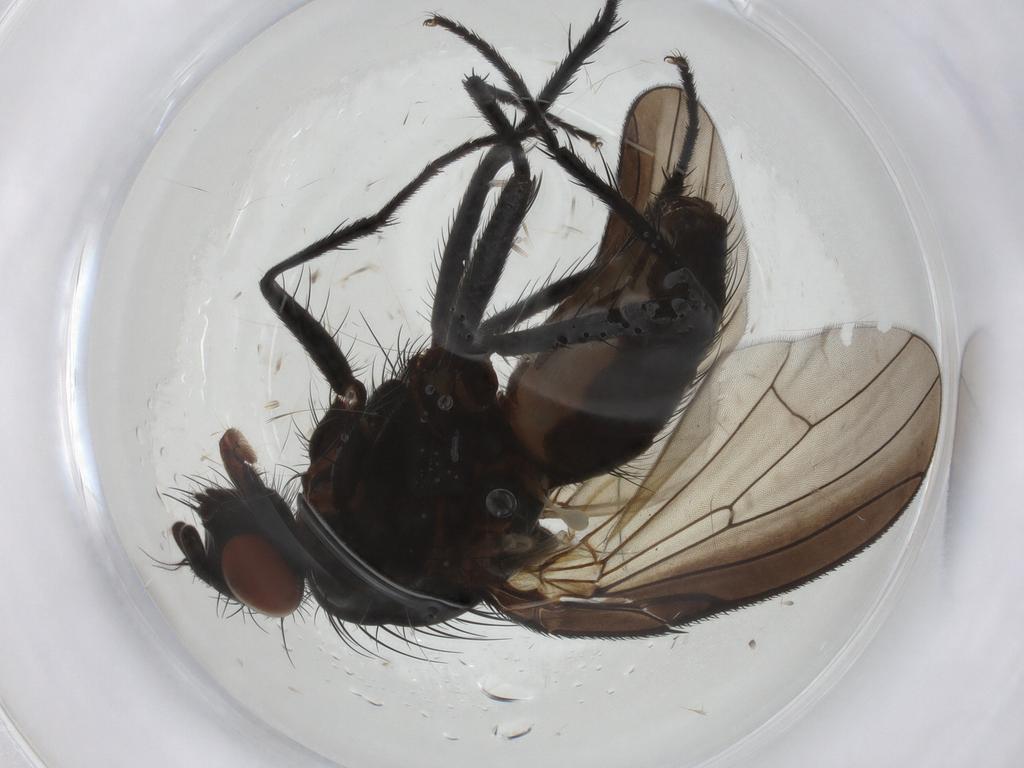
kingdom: Animalia
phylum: Arthropoda
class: Insecta
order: Diptera
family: Anthomyiidae
